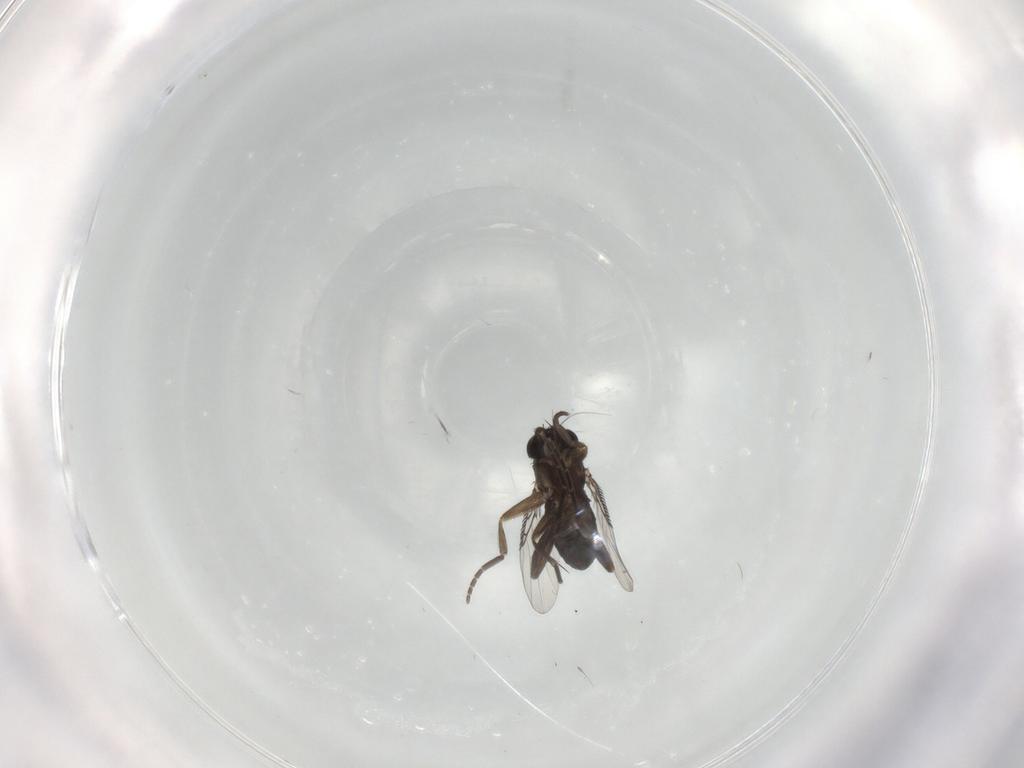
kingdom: Animalia
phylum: Arthropoda
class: Insecta
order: Diptera
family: Phoridae
